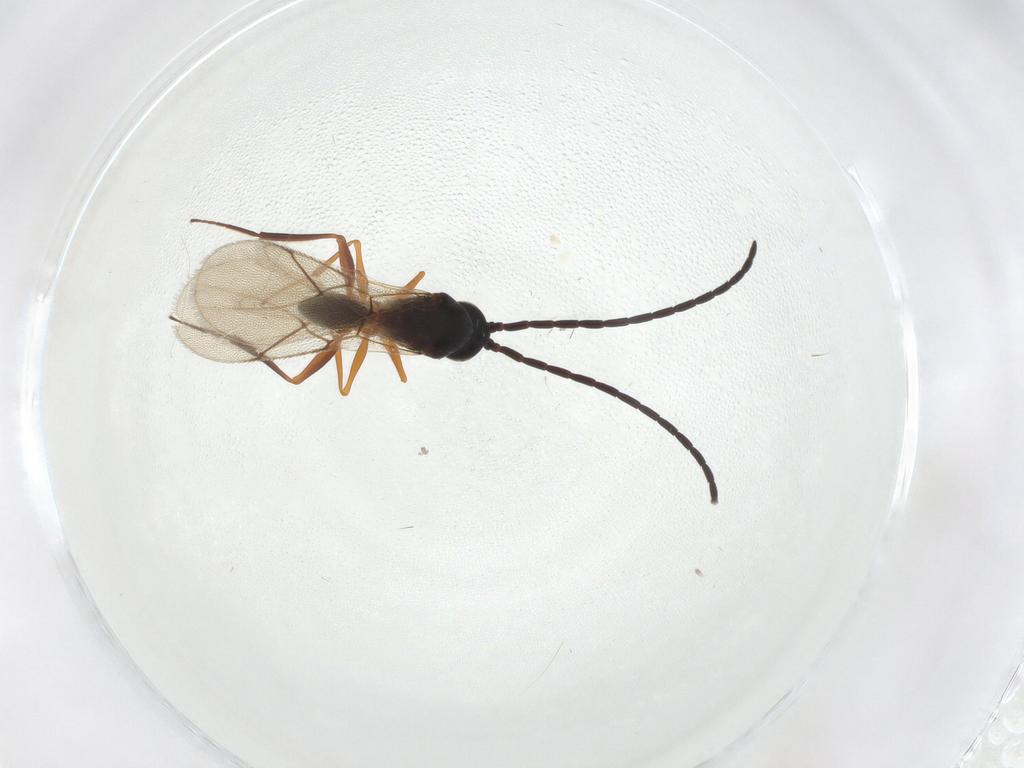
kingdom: Animalia
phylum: Arthropoda
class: Insecta
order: Hymenoptera
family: Figitidae
